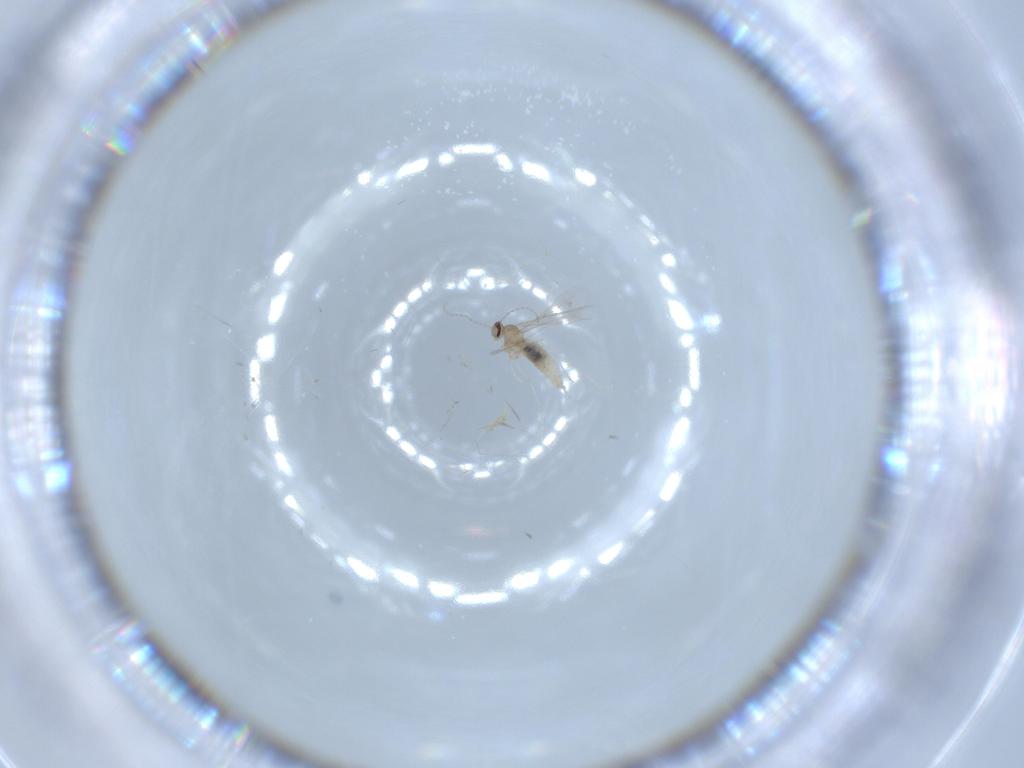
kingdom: Animalia
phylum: Arthropoda
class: Insecta
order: Diptera
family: Cecidomyiidae
